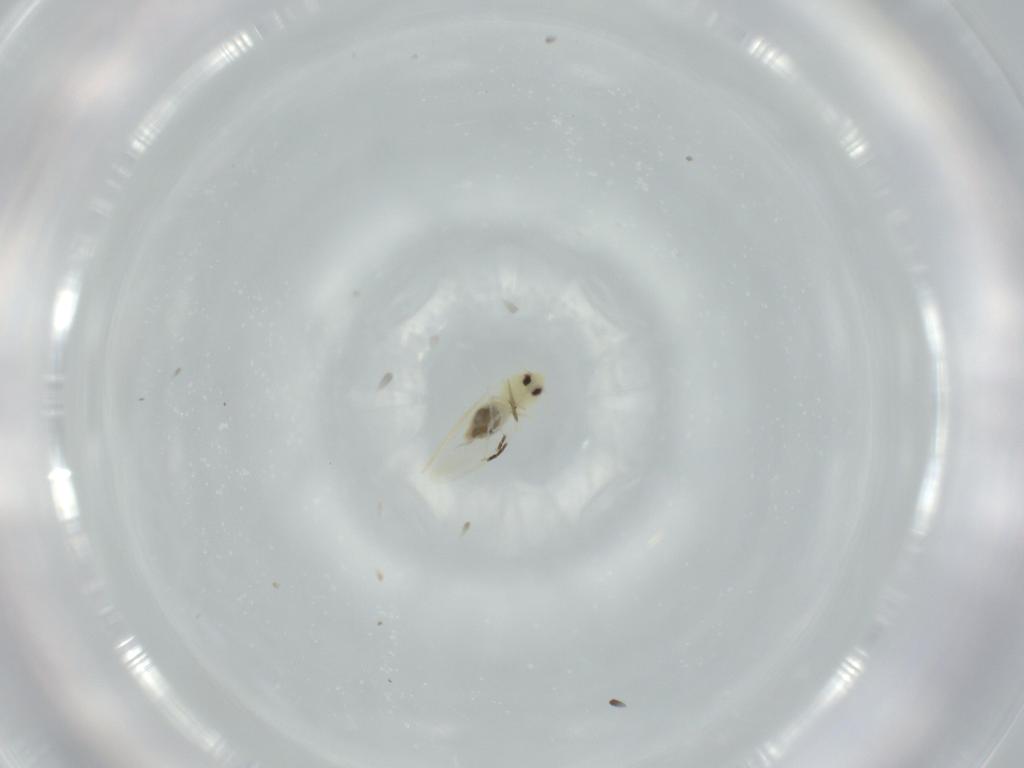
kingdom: Animalia
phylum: Arthropoda
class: Insecta
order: Hemiptera
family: Aleyrodidae
